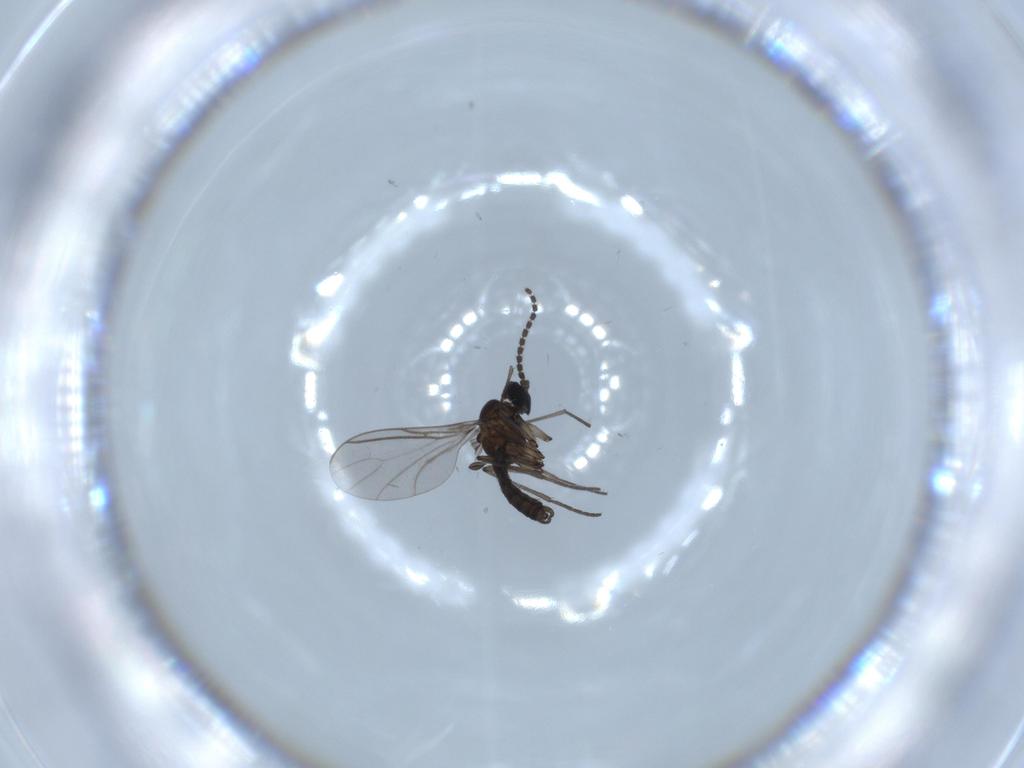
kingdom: Animalia
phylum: Arthropoda
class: Insecta
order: Diptera
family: Sciaridae
